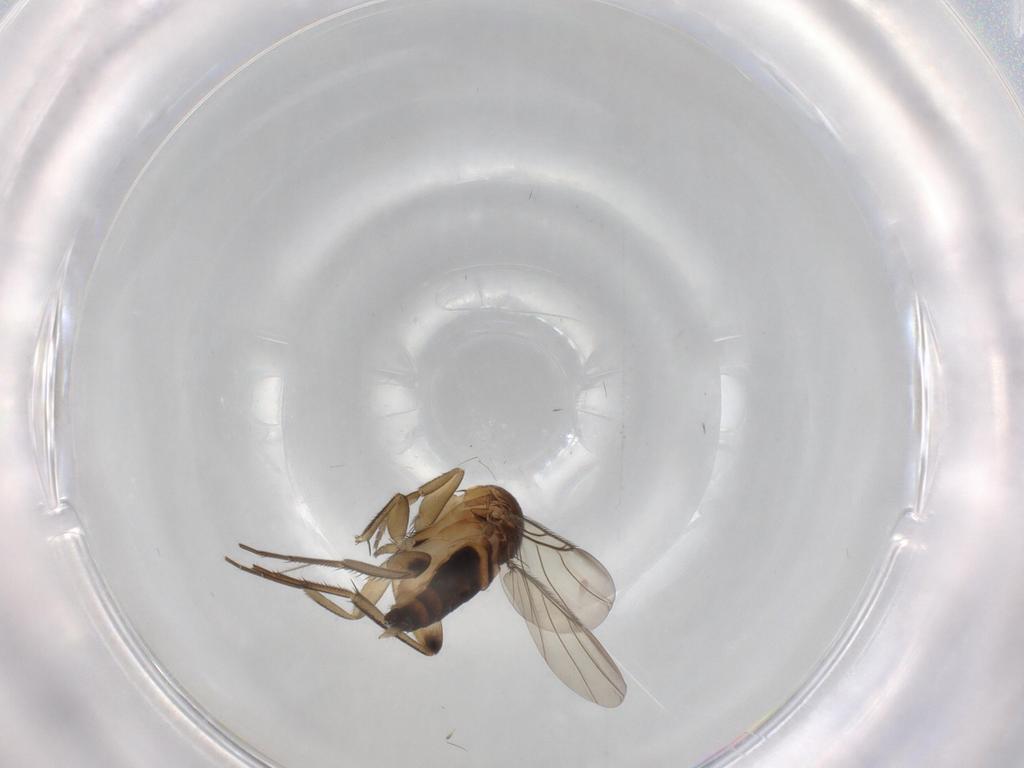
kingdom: Animalia
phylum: Arthropoda
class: Insecta
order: Diptera
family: Phoridae
